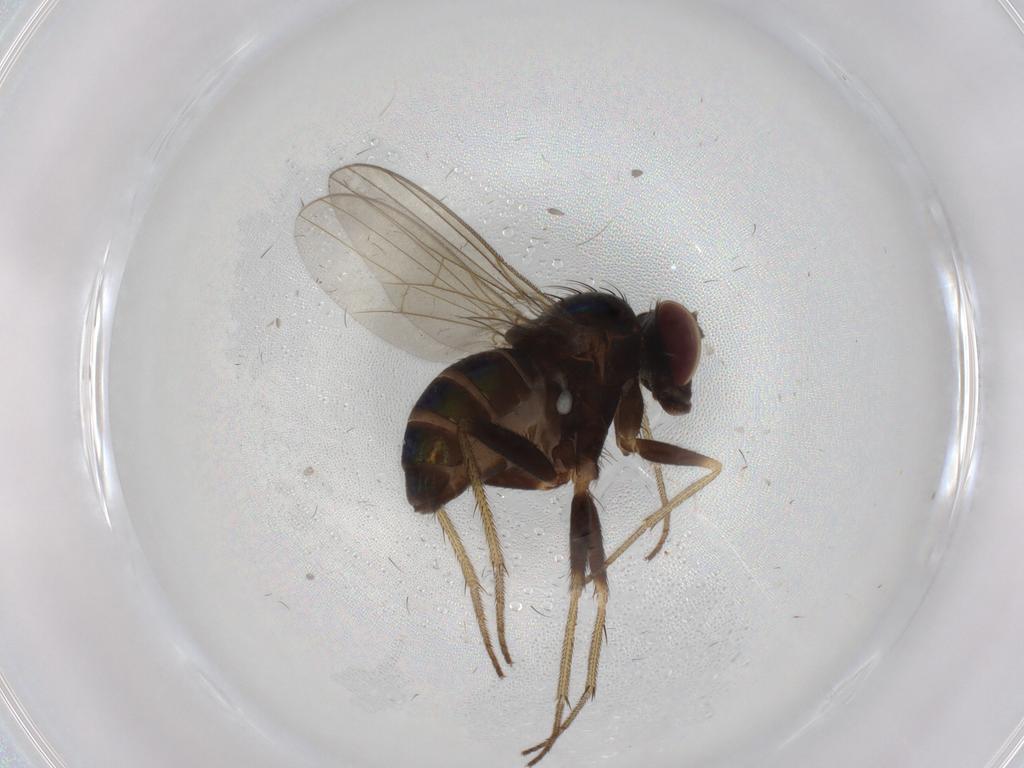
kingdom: Animalia
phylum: Arthropoda
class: Insecta
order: Diptera
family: Dolichopodidae
